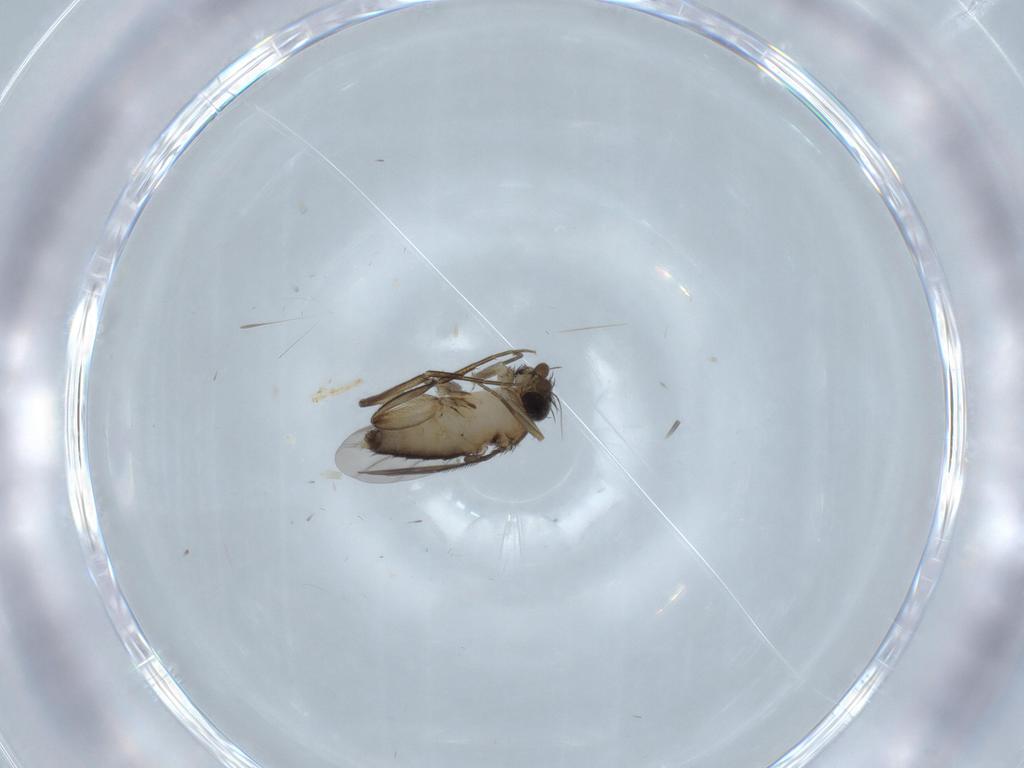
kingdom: Animalia
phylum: Arthropoda
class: Insecta
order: Diptera
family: Phoridae
